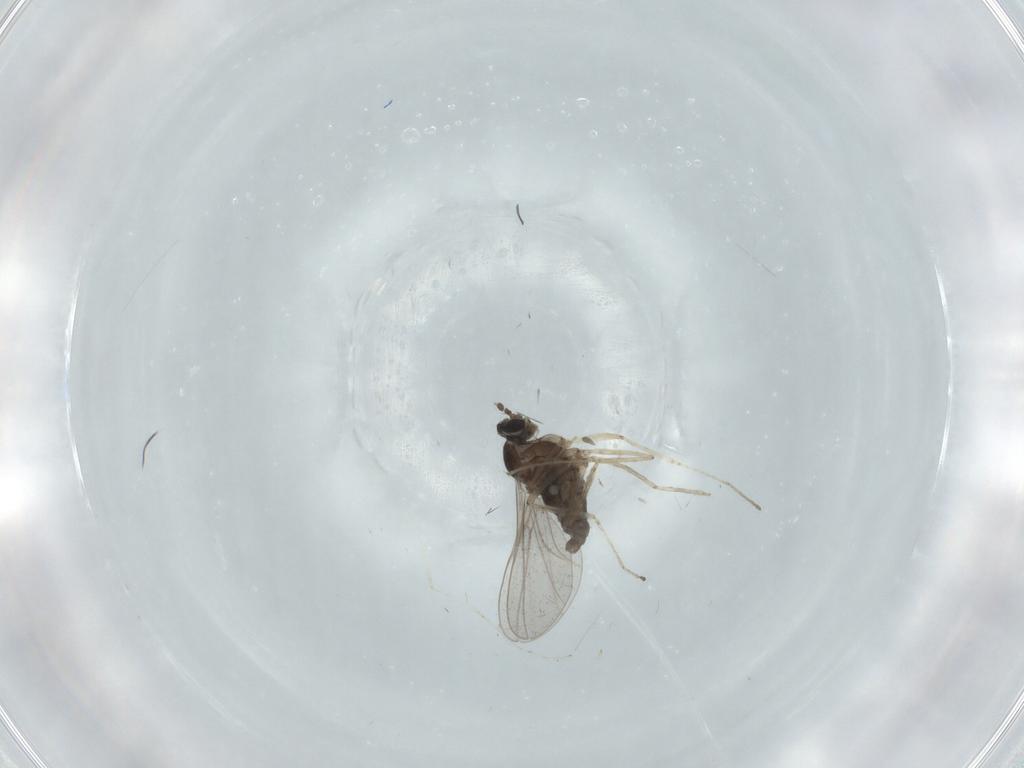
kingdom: Animalia
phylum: Arthropoda
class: Insecta
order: Diptera
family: Cecidomyiidae
